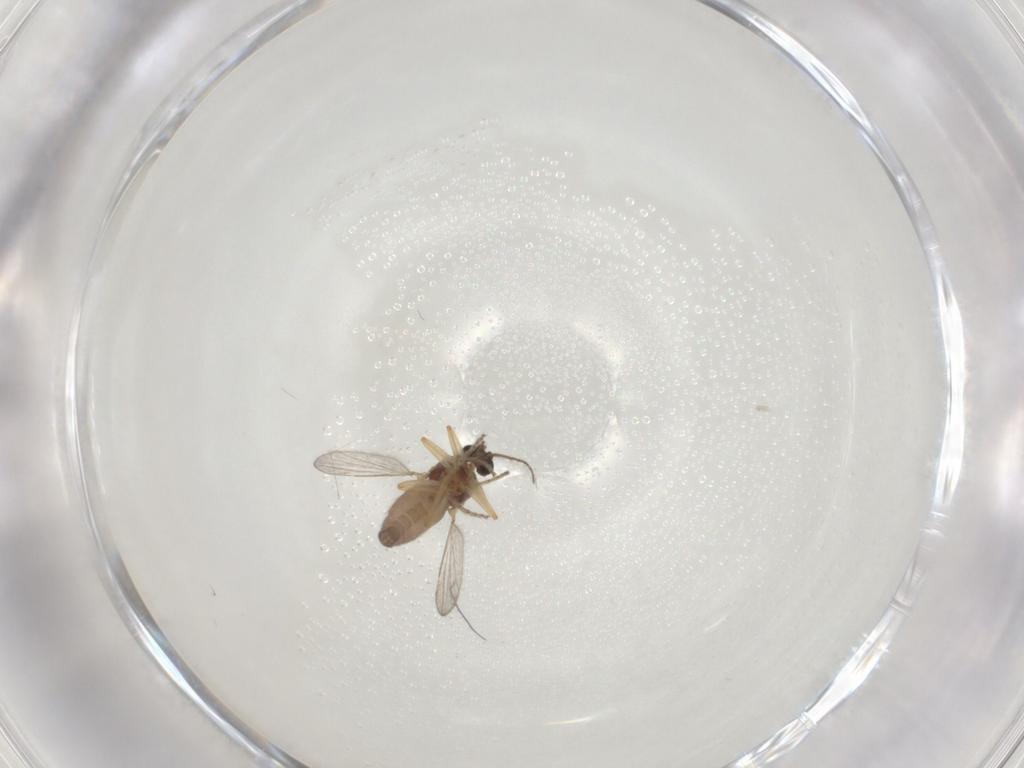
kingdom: Animalia
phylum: Arthropoda
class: Insecta
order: Diptera
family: Ceratopogonidae
